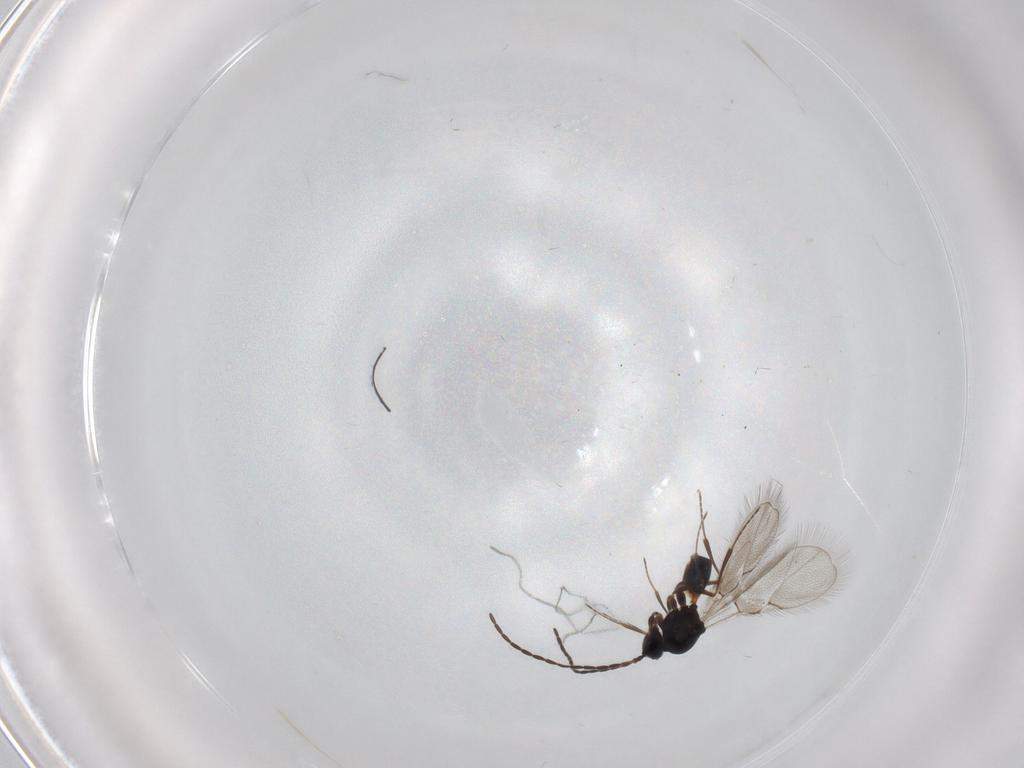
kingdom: Animalia
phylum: Arthropoda
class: Insecta
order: Hymenoptera
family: Figitidae
